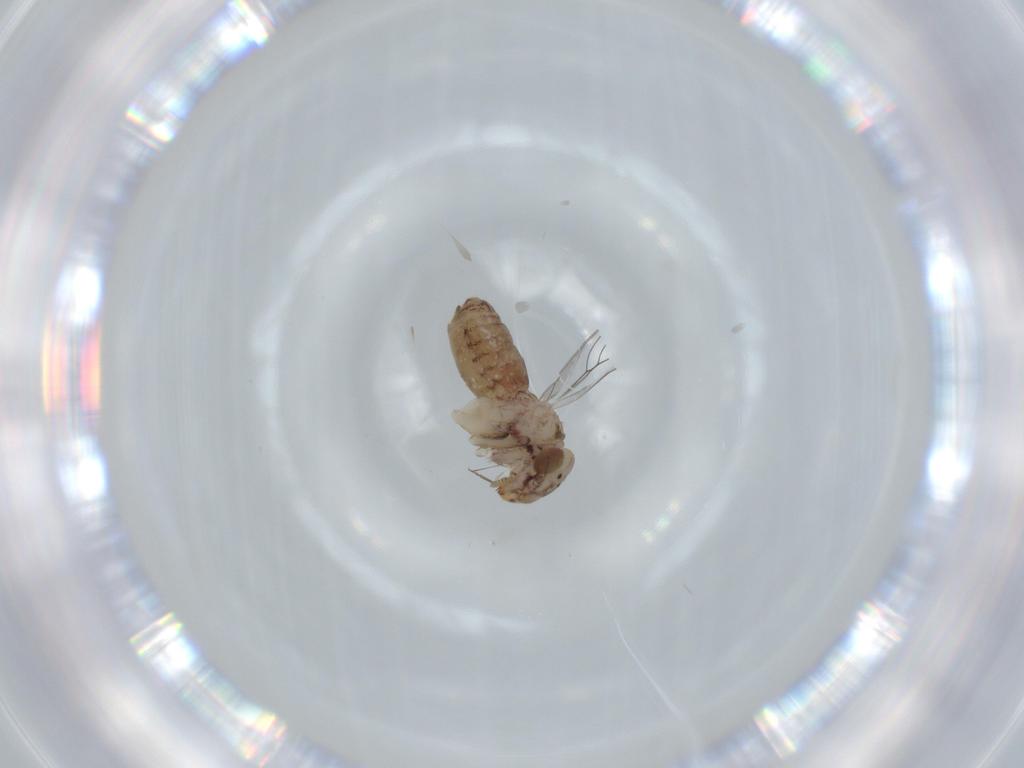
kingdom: Animalia
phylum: Arthropoda
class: Insecta
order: Psocodea
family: Lepidopsocidae
